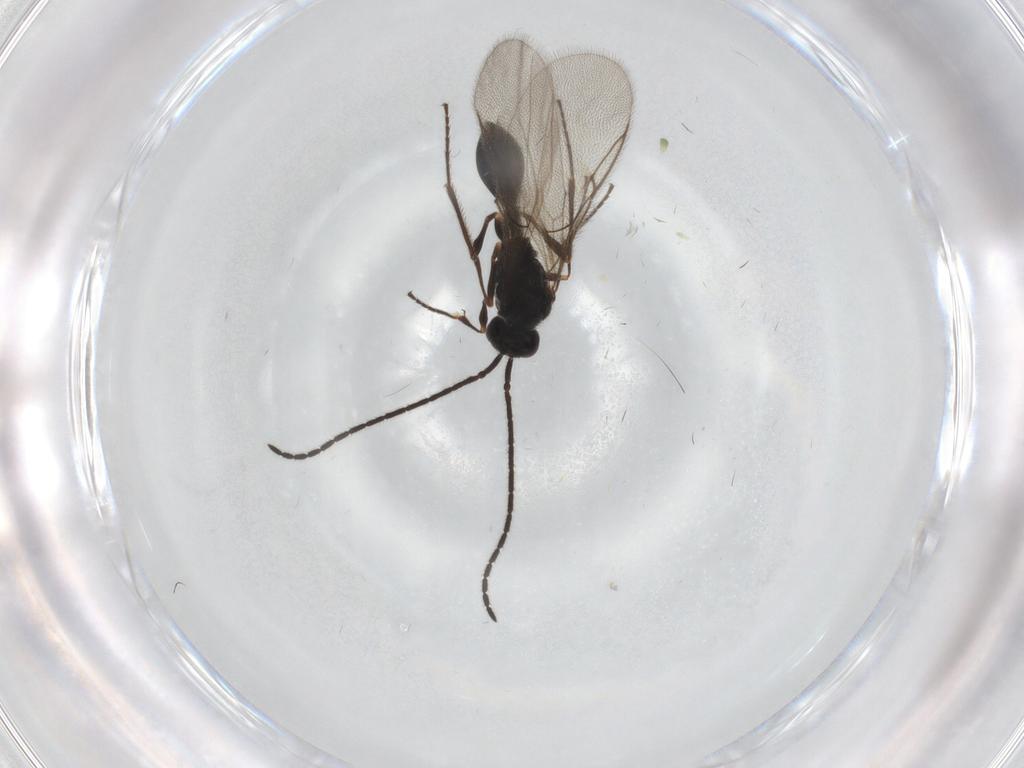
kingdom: Animalia
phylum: Arthropoda
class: Insecta
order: Hymenoptera
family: Diapriidae
